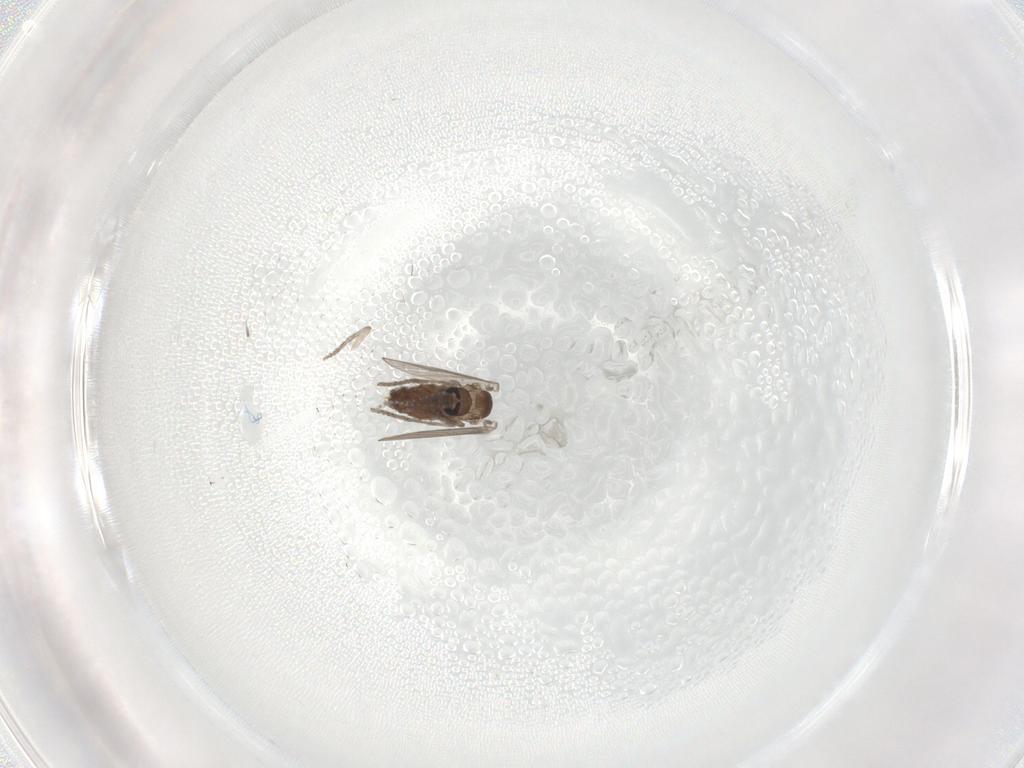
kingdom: Animalia
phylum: Arthropoda
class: Insecta
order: Diptera
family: Psychodidae
